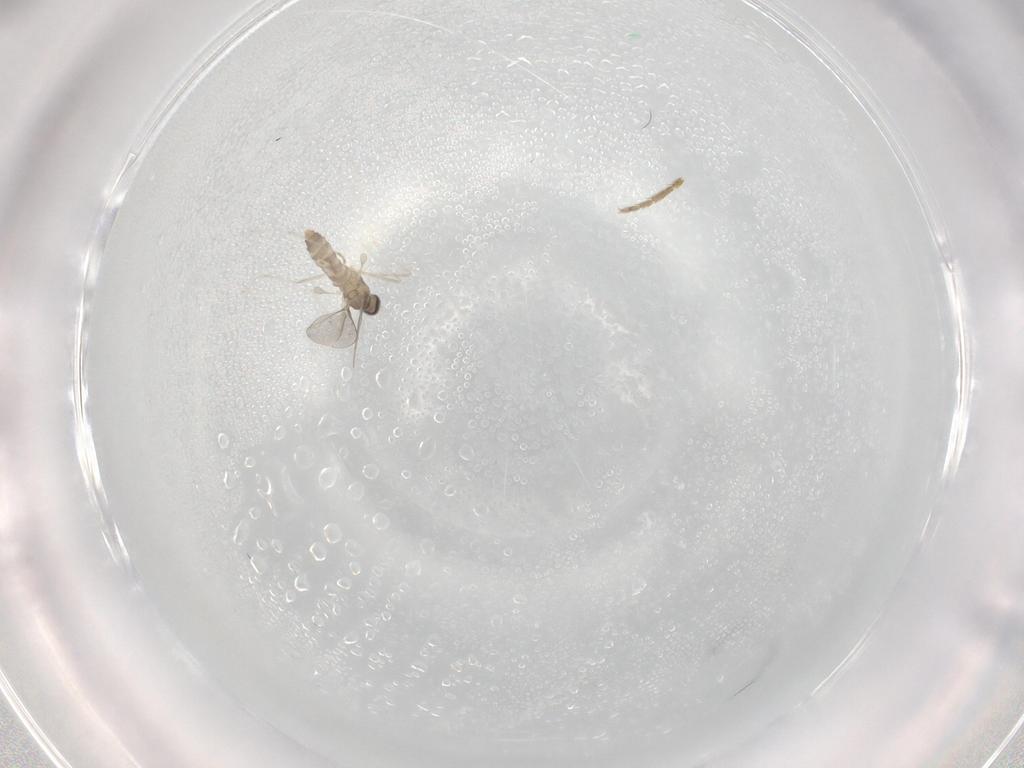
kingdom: Animalia
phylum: Arthropoda
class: Insecta
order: Diptera
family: Cecidomyiidae
